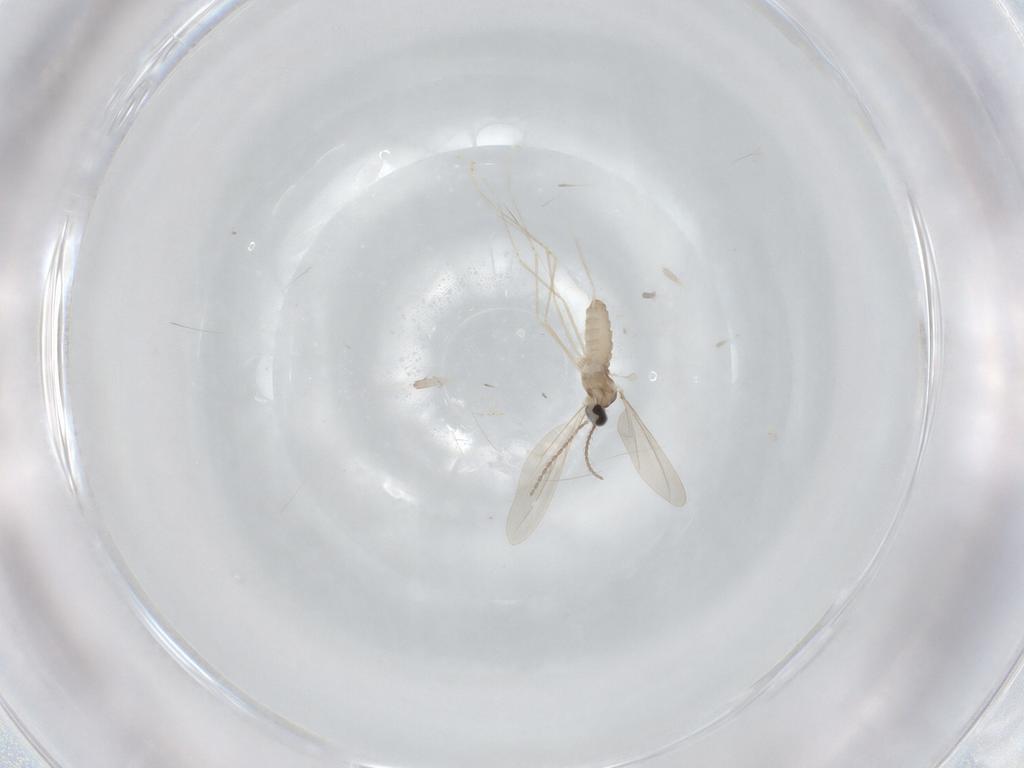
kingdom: Animalia
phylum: Arthropoda
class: Insecta
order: Diptera
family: Cecidomyiidae
